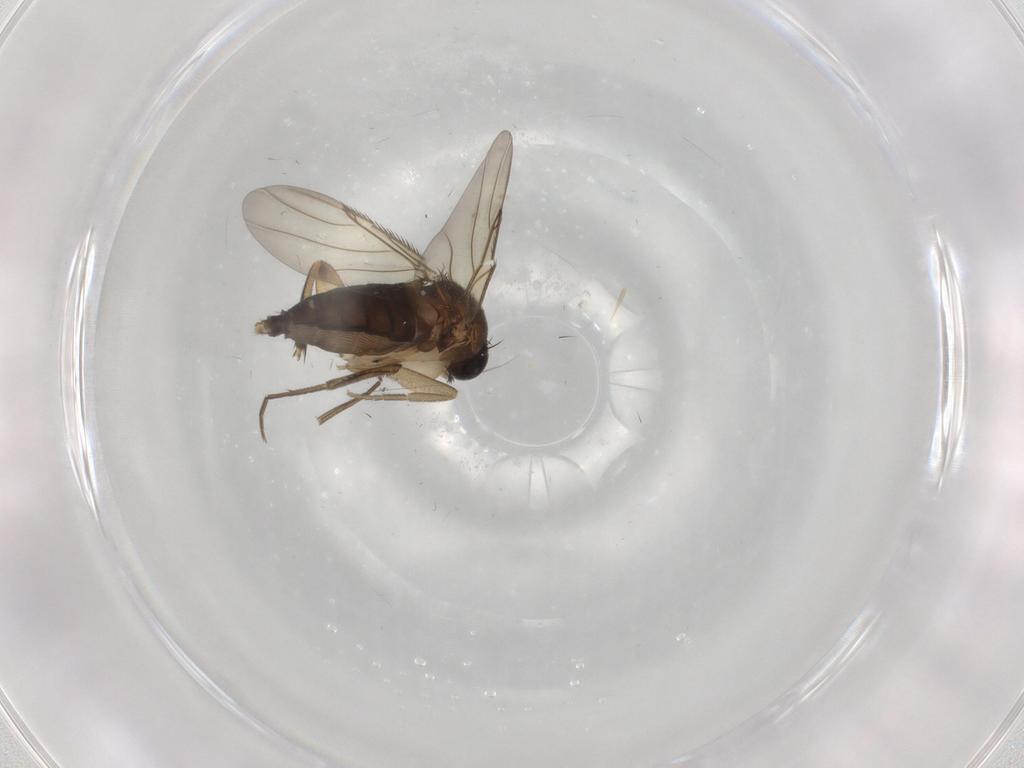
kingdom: Animalia
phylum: Arthropoda
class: Insecta
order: Diptera
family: Phoridae
